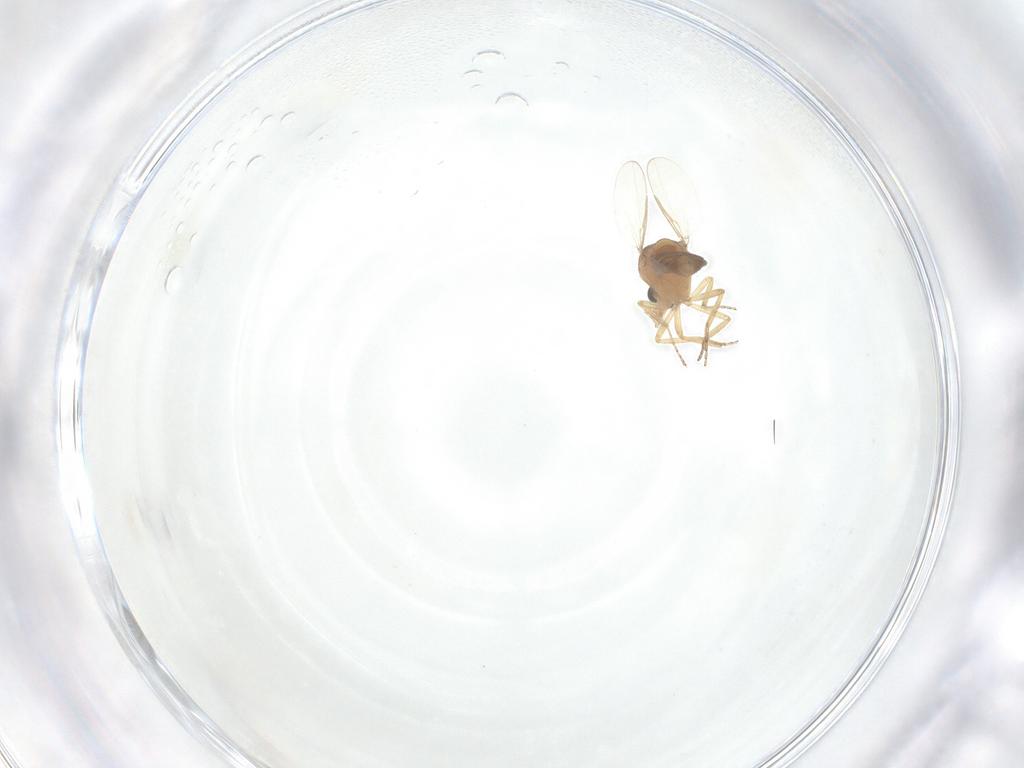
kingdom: Animalia
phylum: Arthropoda
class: Insecta
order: Diptera
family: Ceratopogonidae
